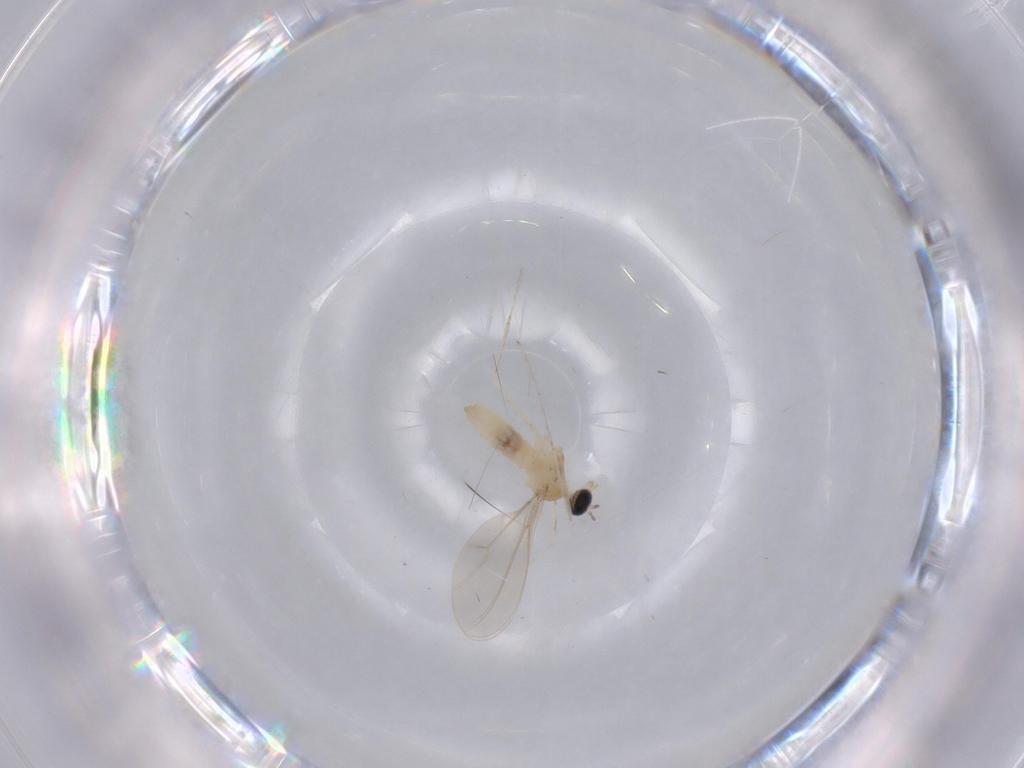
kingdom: Animalia
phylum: Arthropoda
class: Insecta
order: Diptera
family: Cecidomyiidae
